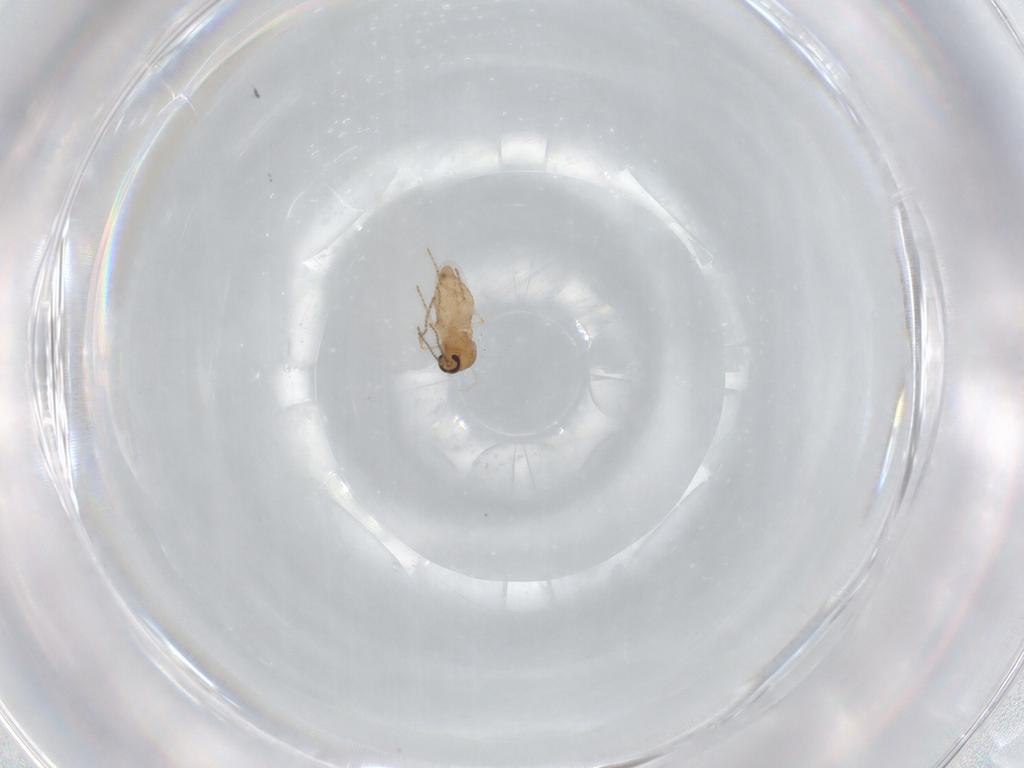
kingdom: Animalia
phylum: Arthropoda
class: Insecta
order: Diptera
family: Ceratopogonidae
